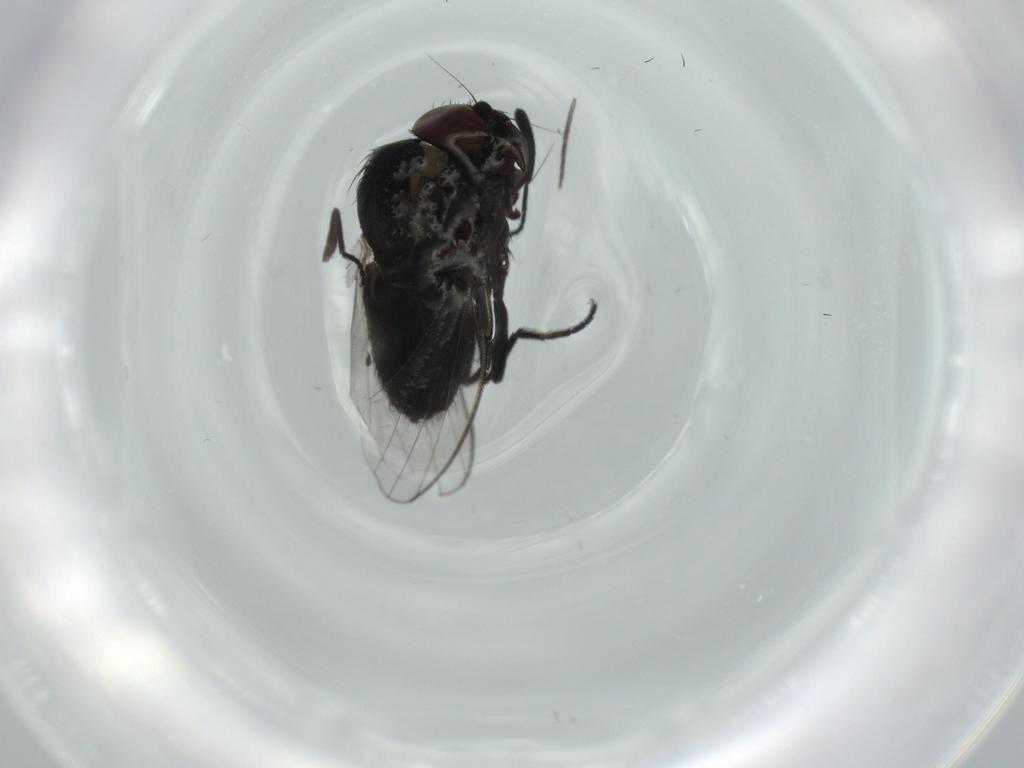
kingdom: Animalia
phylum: Arthropoda
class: Insecta
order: Diptera
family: Milichiidae
